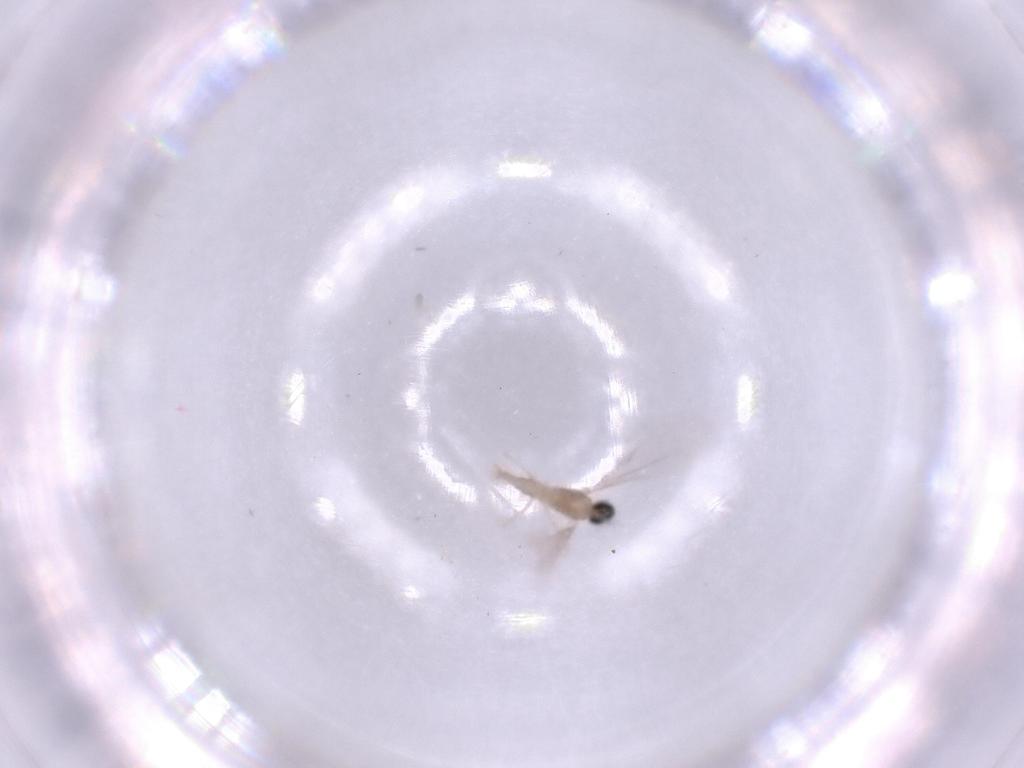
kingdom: Animalia
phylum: Arthropoda
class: Insecta
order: Diptera
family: Cecidomyiidae
